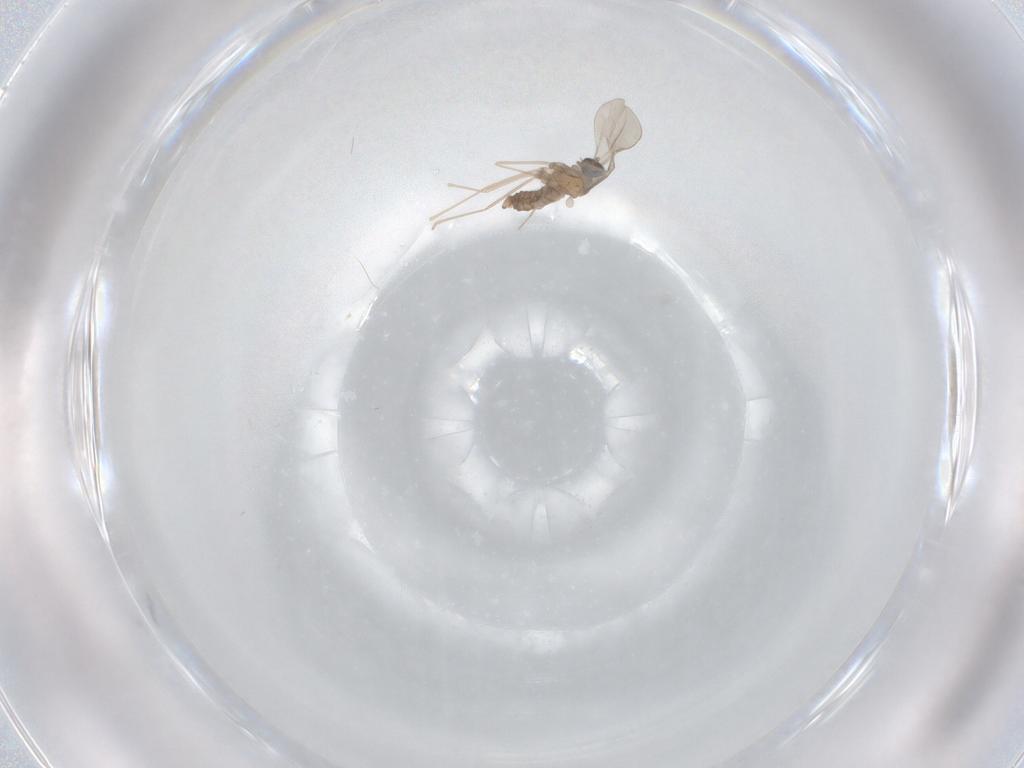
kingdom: Animalia
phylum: Arthropoda
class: Insecta
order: Diptera
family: Cecidomyiidae
